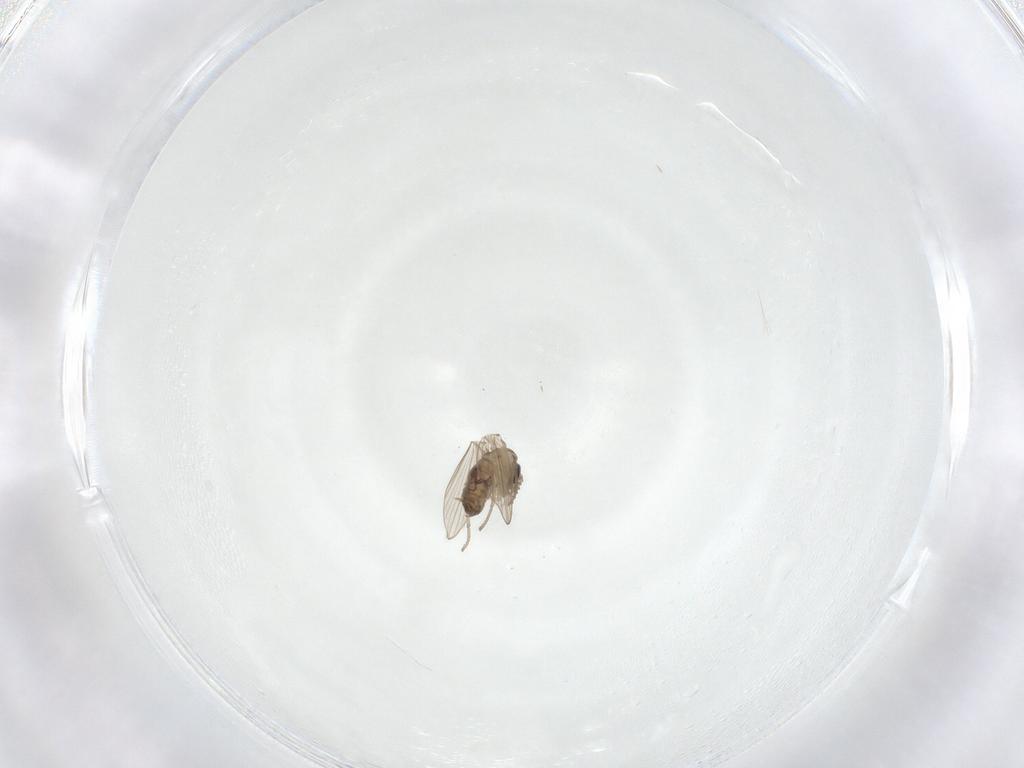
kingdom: Animalia
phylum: Arthropoda
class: Insecta
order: Diptera
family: Psychodidae
